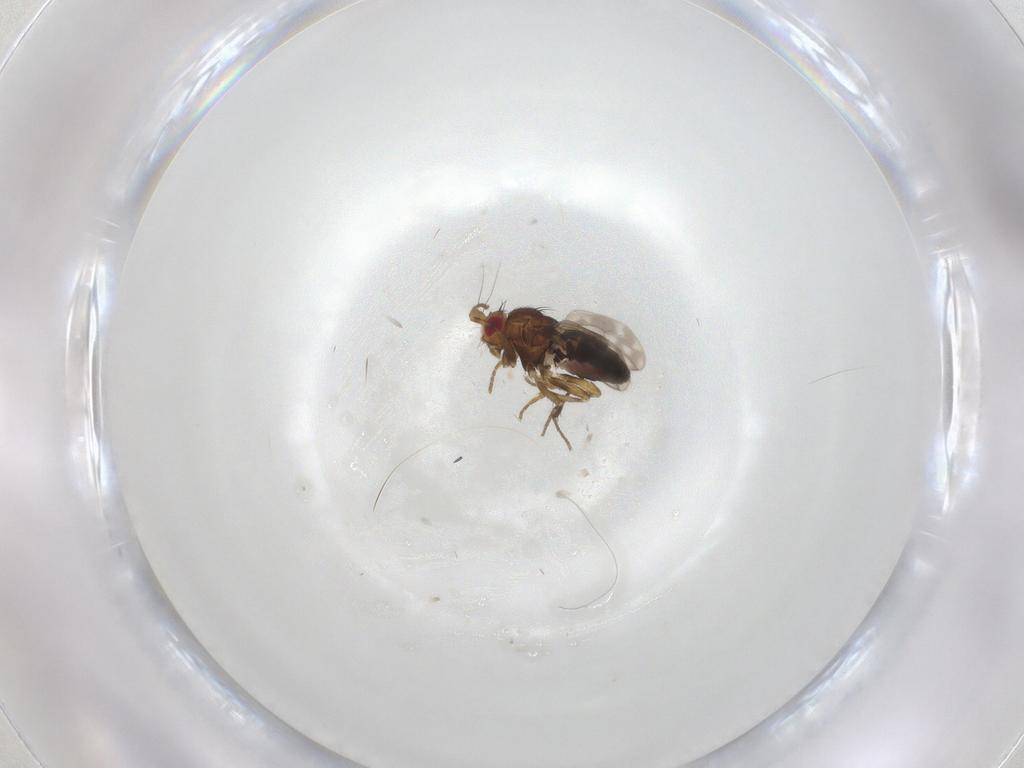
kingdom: Animalia
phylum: Arthropoda
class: Insecta
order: Diptera
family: Sphaeroceridae
